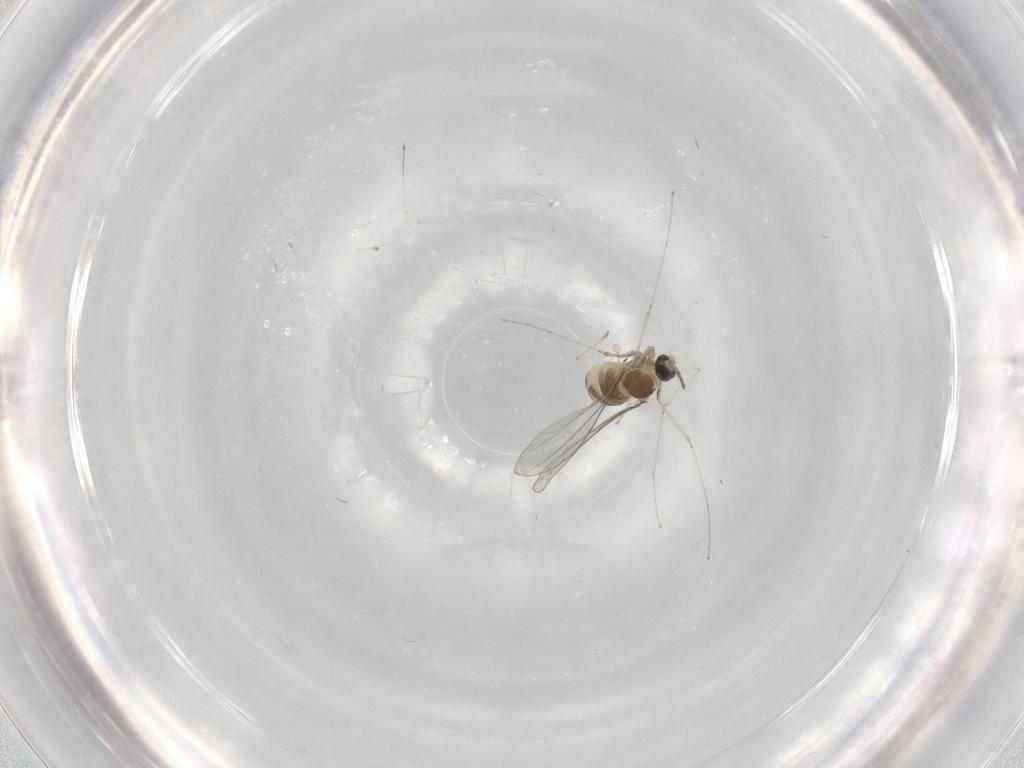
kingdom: Animalia
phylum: Arthropoda
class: Insecta
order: Diptera
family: Cecidomyiidae
